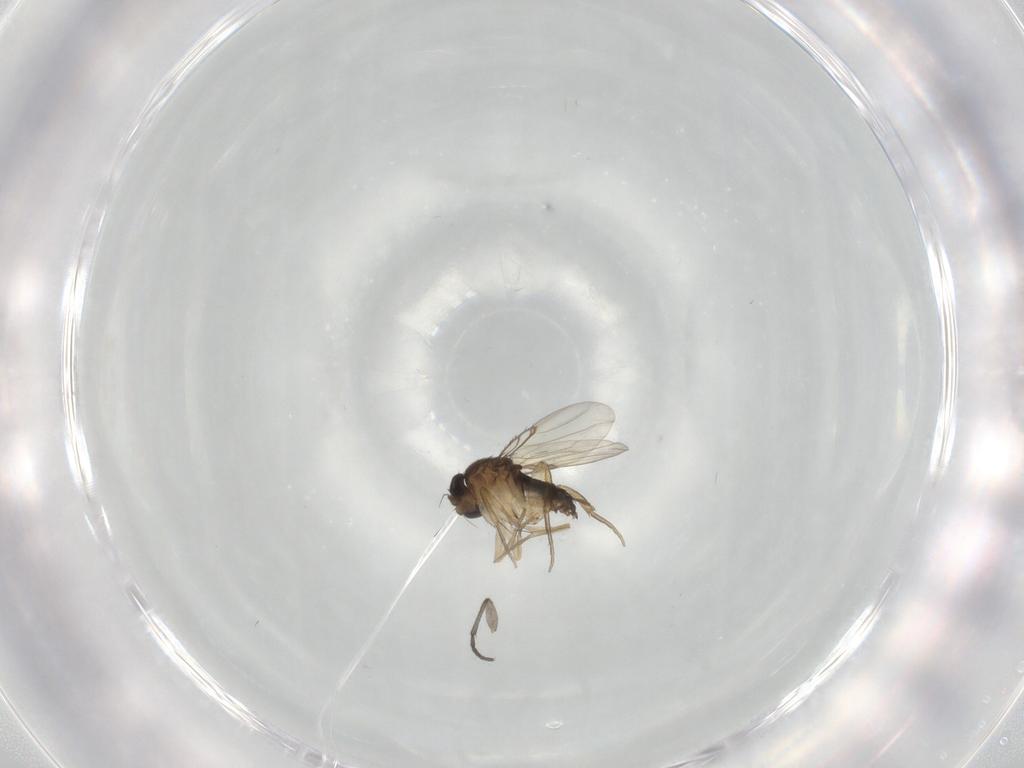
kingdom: Animalia
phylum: Arthropoda
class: Insecta
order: Diptera
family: Sciaridae
